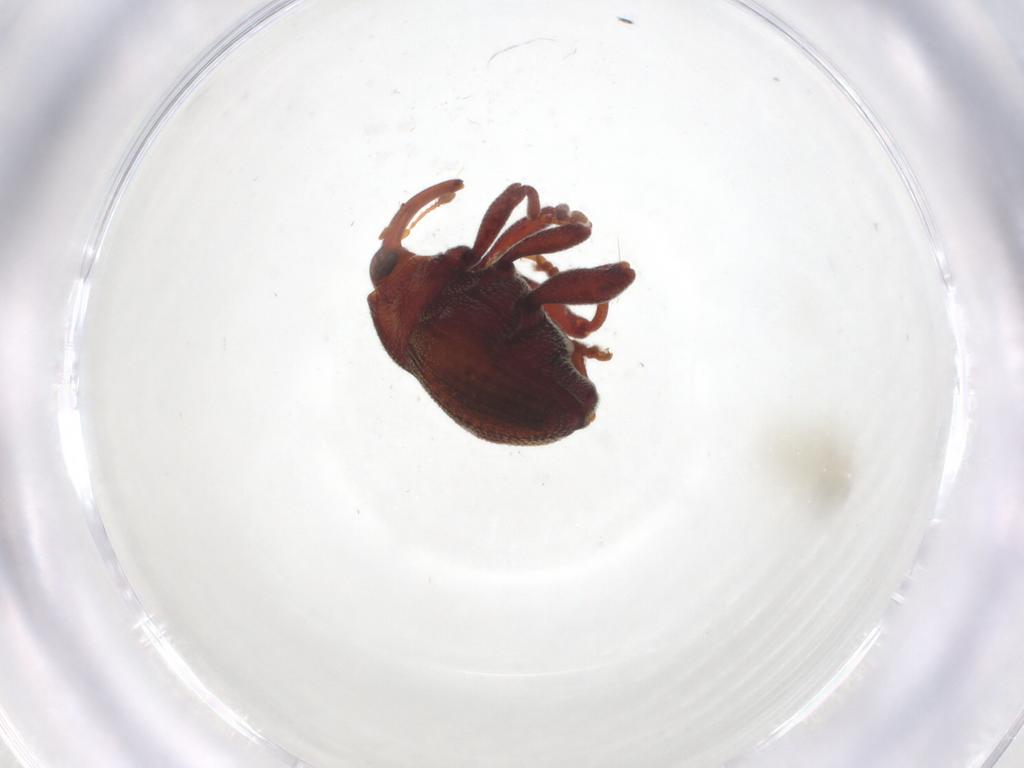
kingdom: Animalia
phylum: Arthropoda
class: Insecta
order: Coleoptera
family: Curculionidae
